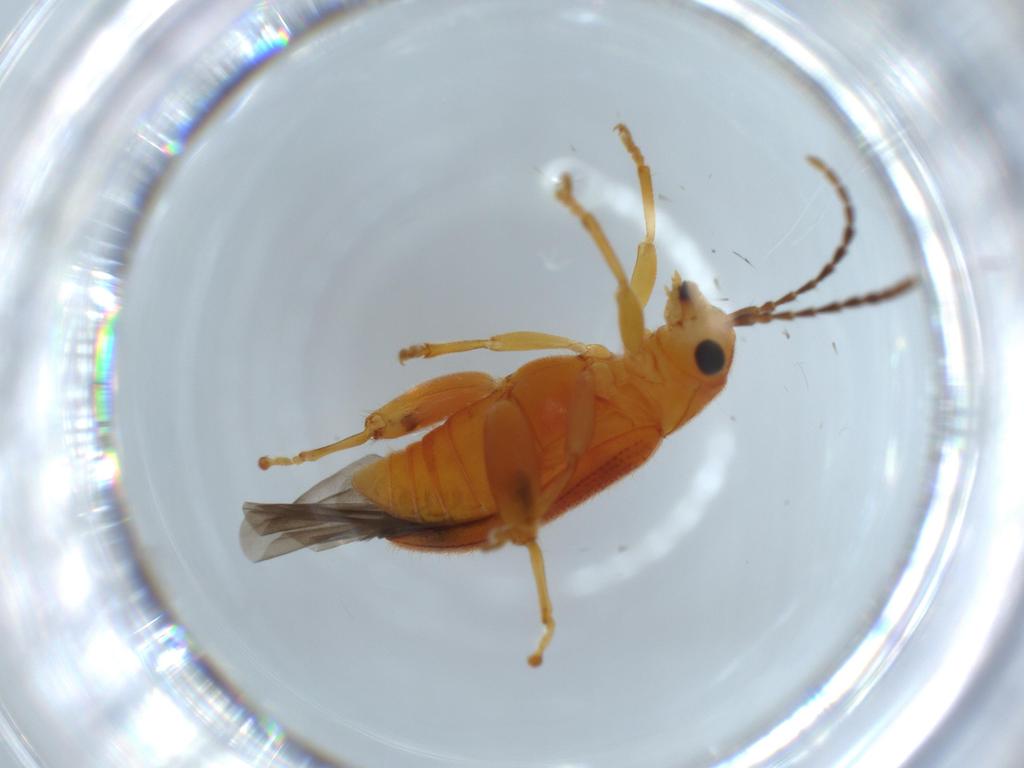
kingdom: Animalia
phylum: Arthropoda
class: Insecta
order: Coleoptera
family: Chrysomelidae
